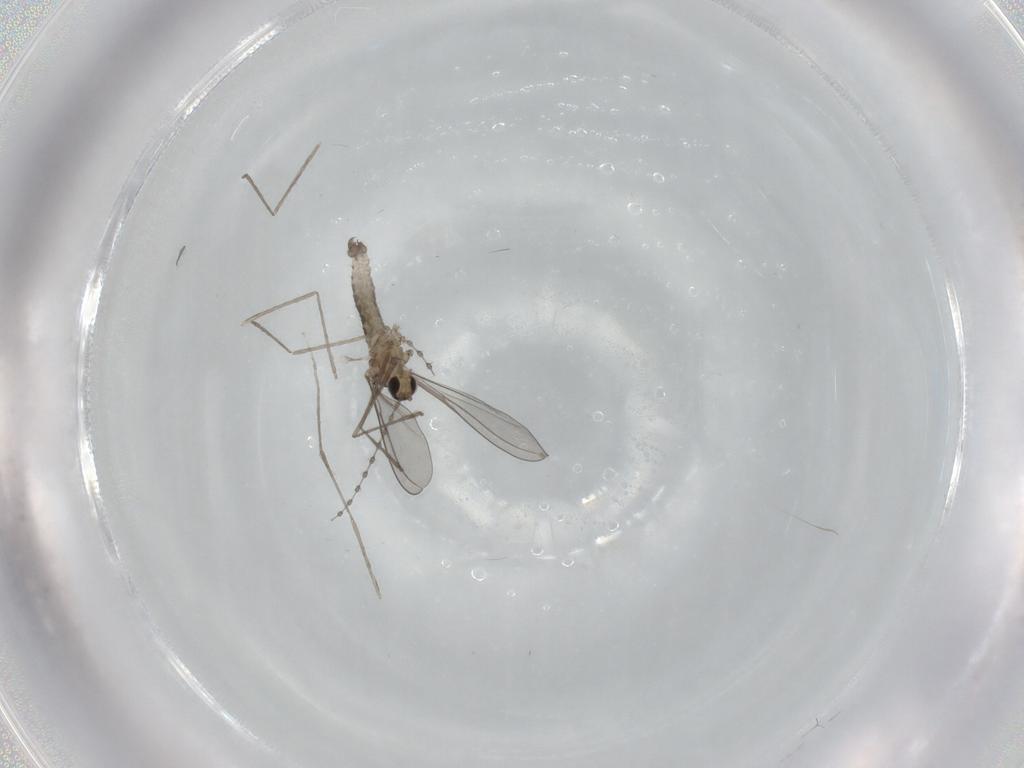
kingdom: Animalia
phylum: Arthropoda
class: Insecta
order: Diptera
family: Cecidomyiidae
